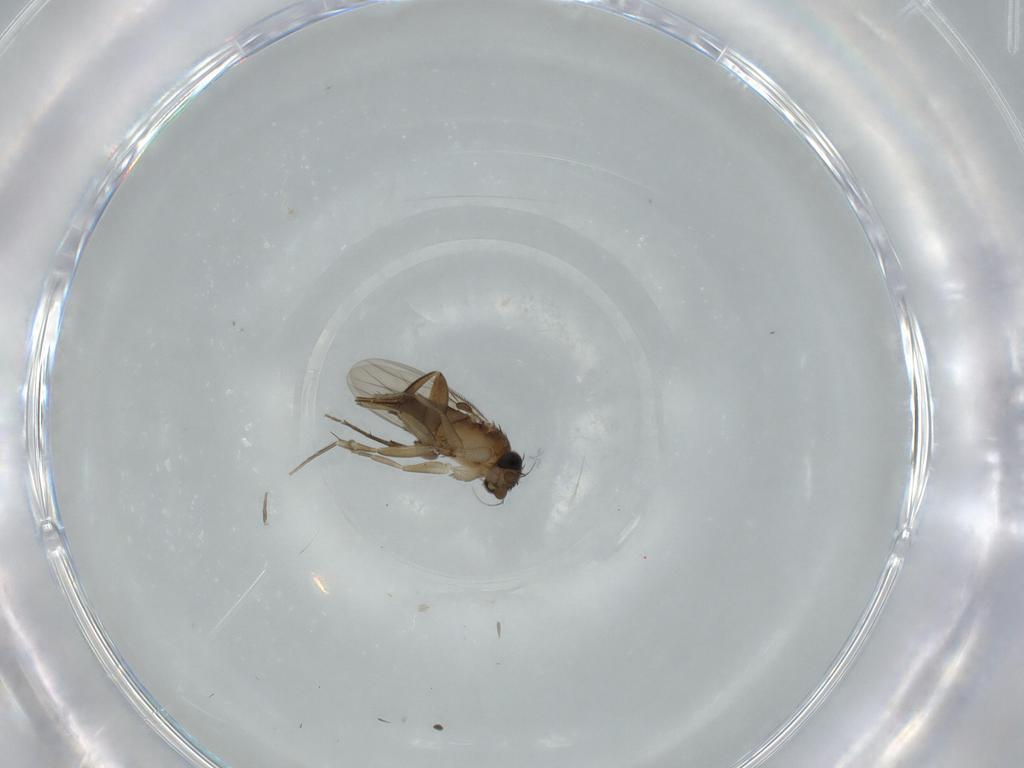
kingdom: Animalia
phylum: Arthropoda
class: Insecta
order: Diptera
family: Phoridae
